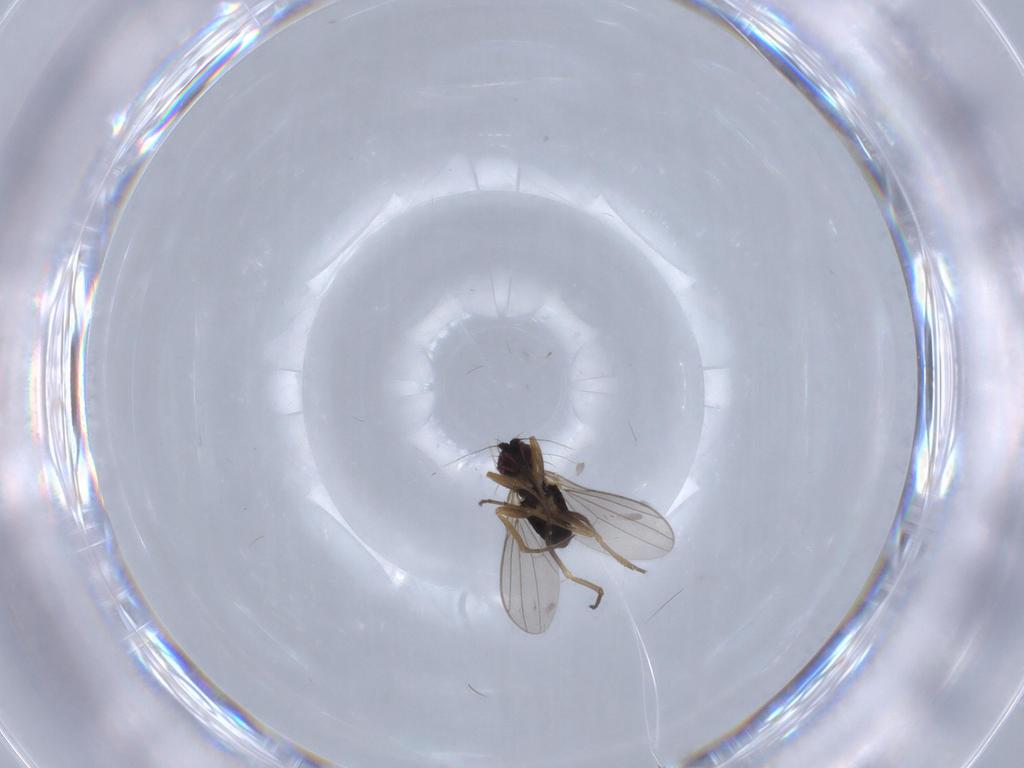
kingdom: Animalia
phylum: Arthropoda
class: Insecta
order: Diptera
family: Dolichopodidae
